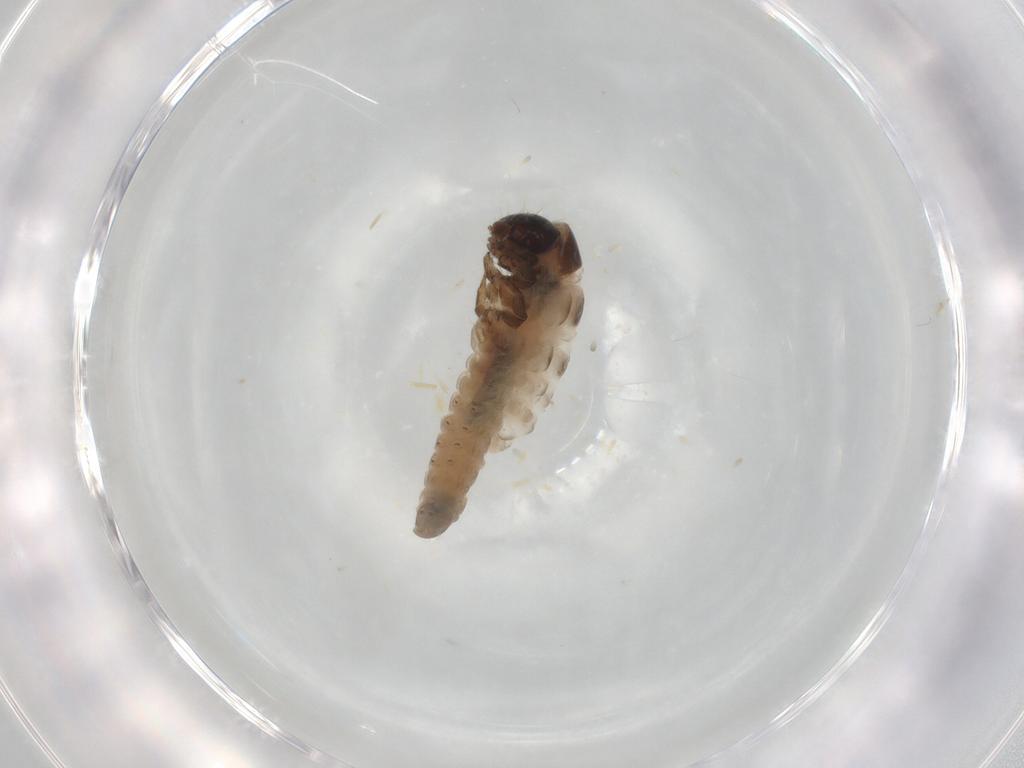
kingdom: Animalia
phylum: Arthropoda
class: Insecta
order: Lepidoptera
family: Psychidae
